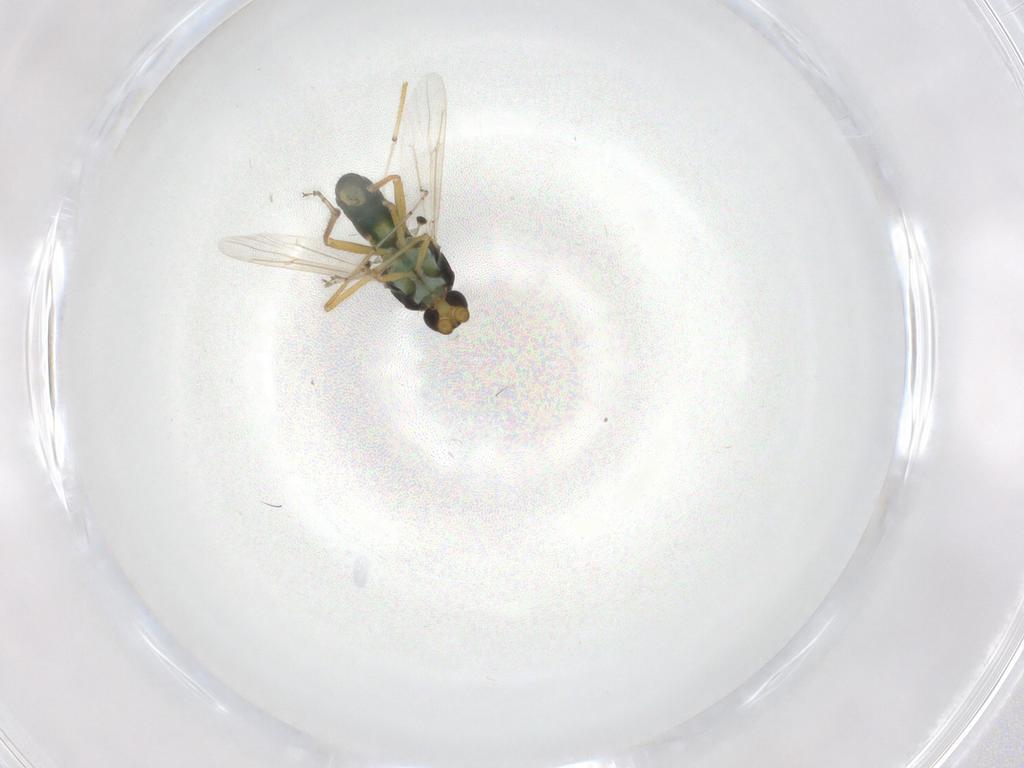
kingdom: Animalia
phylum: Arthropoda
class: Insecta
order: Diptera
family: Ceratopogonidae
